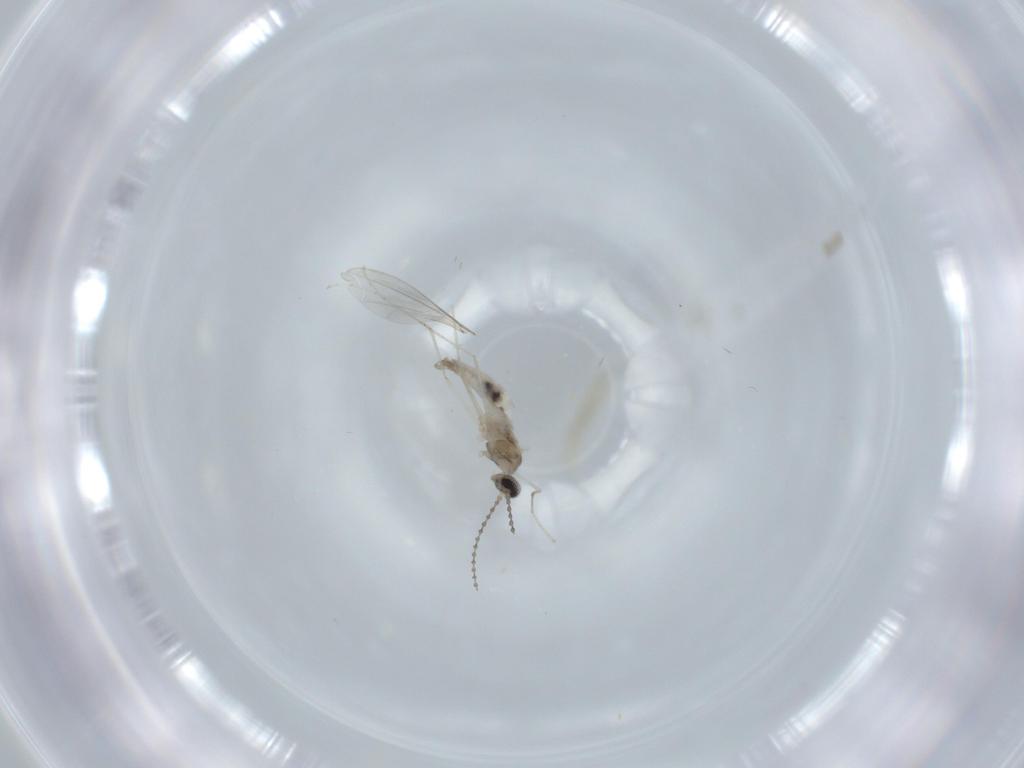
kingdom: Animalia
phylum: Arthropoda
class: Insecta
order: Diptera
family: Cecidomyiidae
